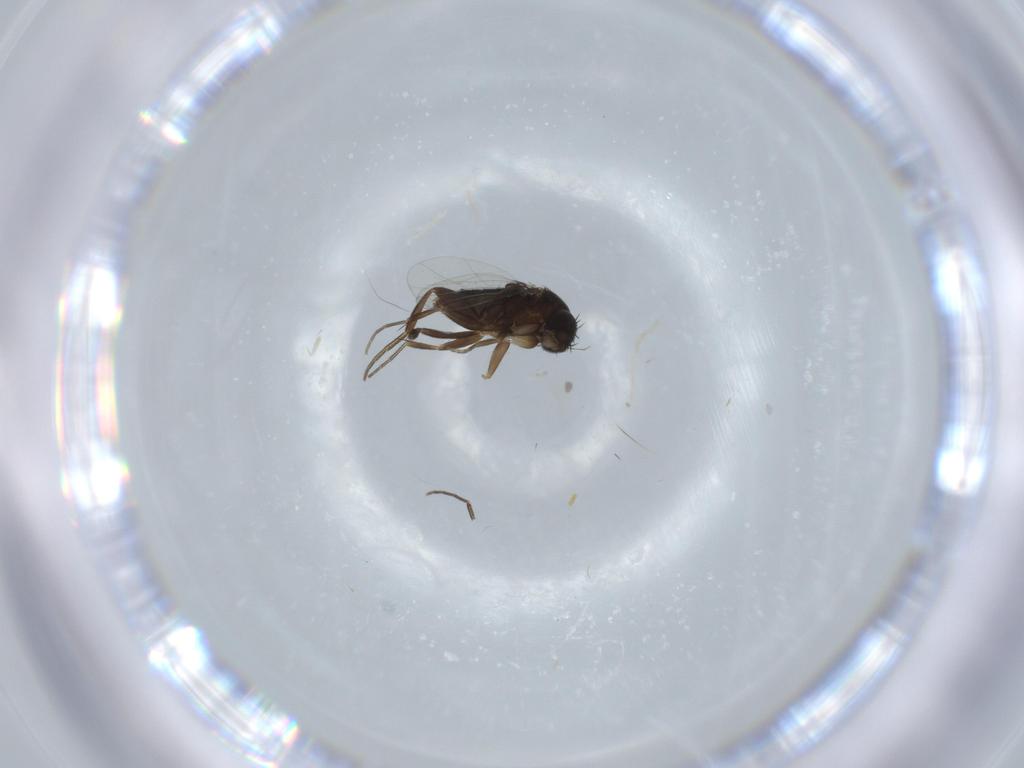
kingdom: Animalia
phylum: Arthropoda
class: Insecta
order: Diptera
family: Phoridae
